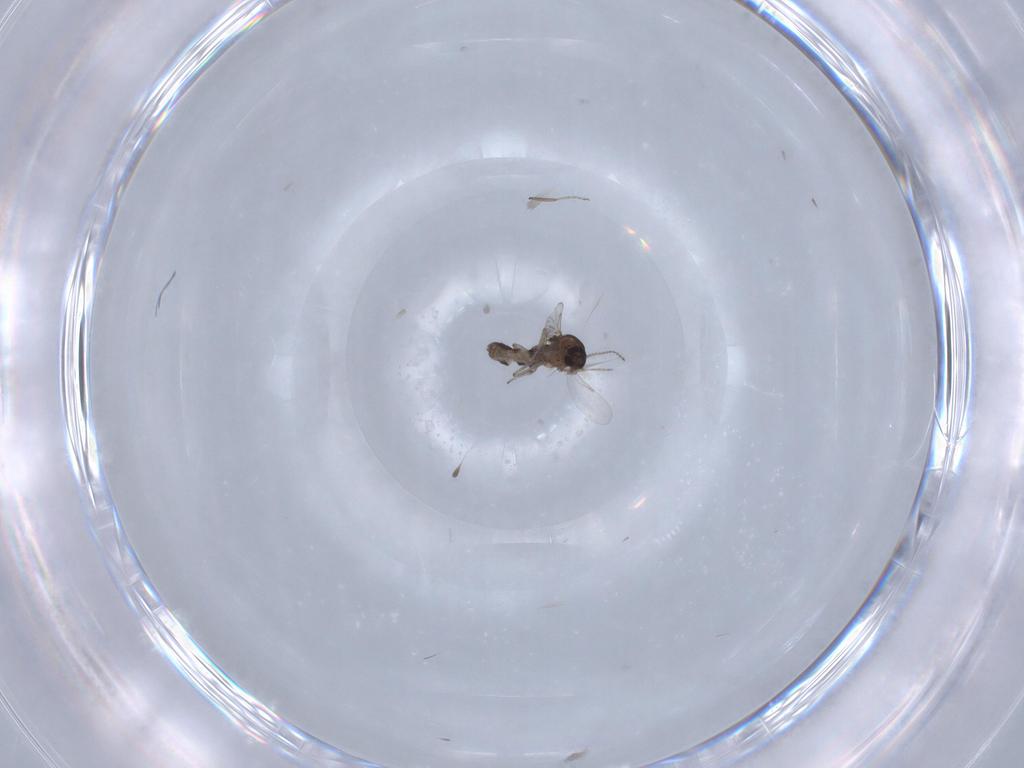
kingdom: Animalia
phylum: Arthropoda
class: Insecta
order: Diptera
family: Ceratopogonidae
